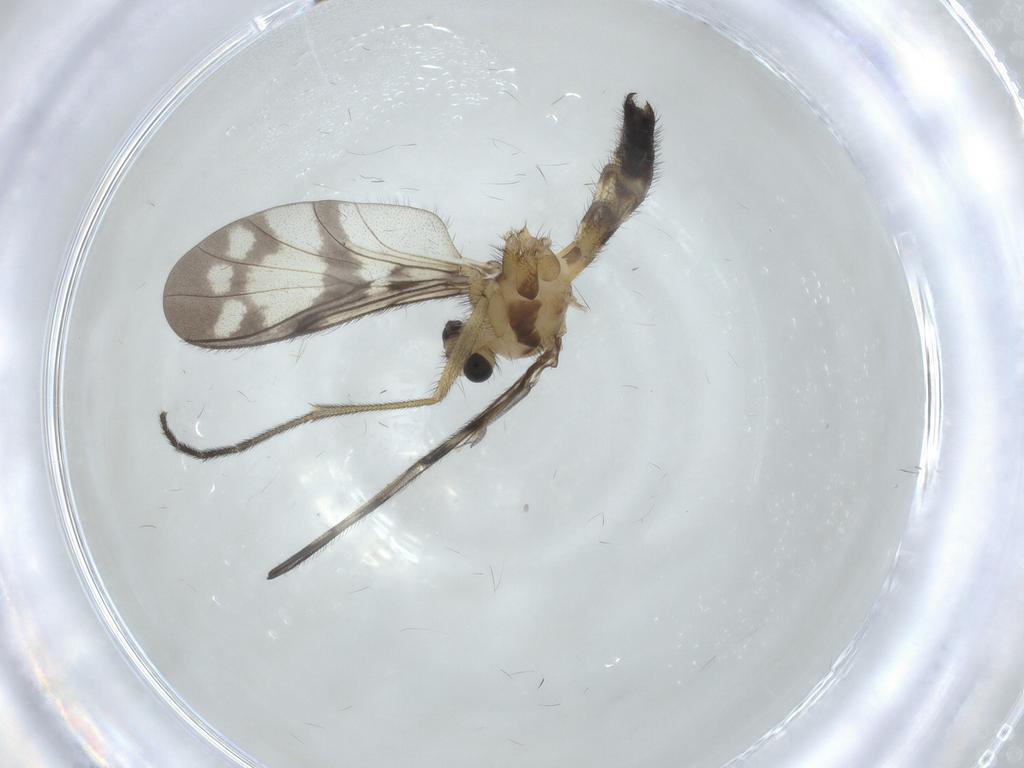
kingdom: Animalia
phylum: Arthropoda
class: Insecta
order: Diptera
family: Keroplatidae
